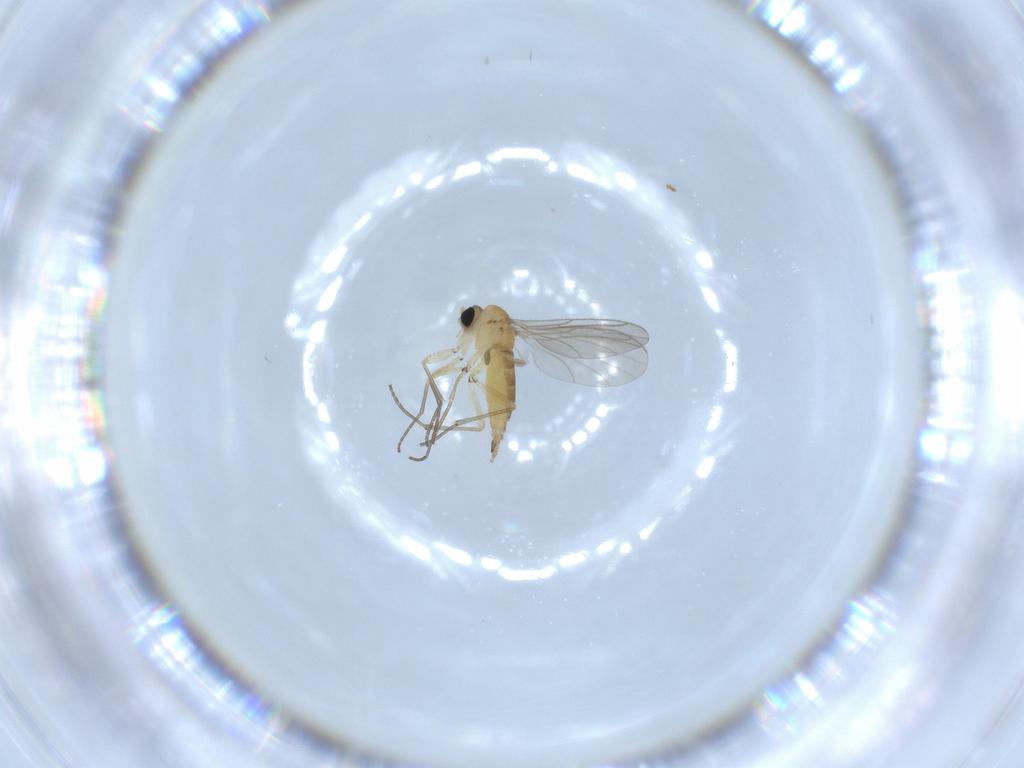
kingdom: Animalia
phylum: Arthropoda
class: Insecta
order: Diptera
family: Sciaridae
